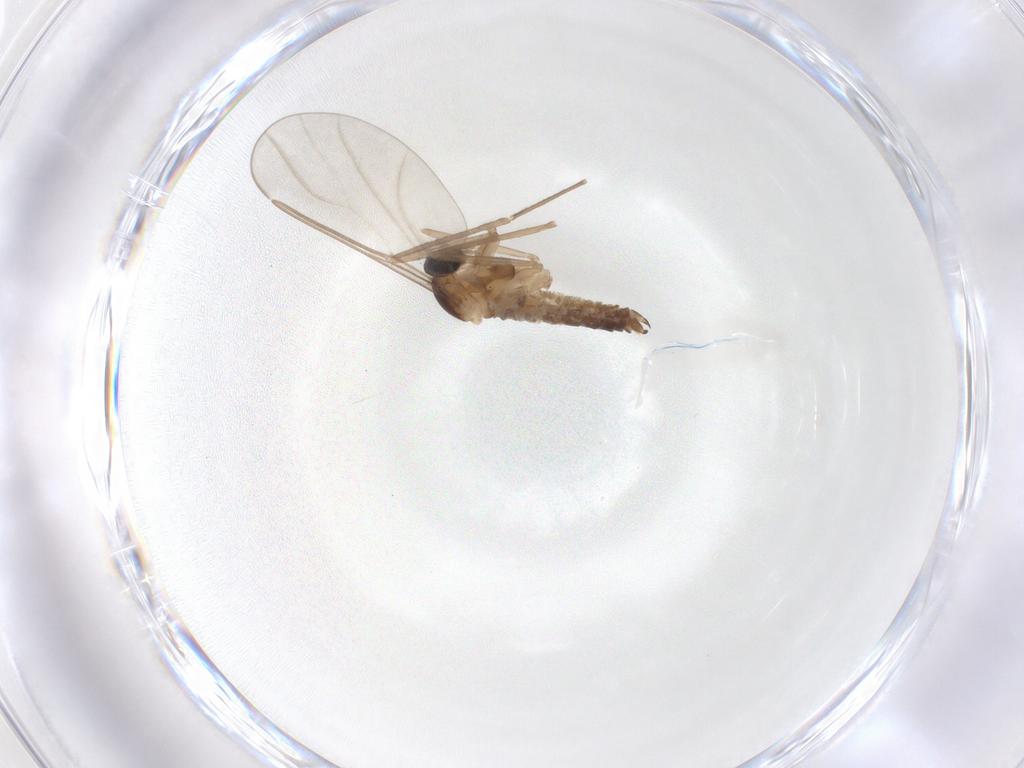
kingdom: Animalia
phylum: Arthropoda
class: Insecta
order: Diptera
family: Cecidomyiidae
